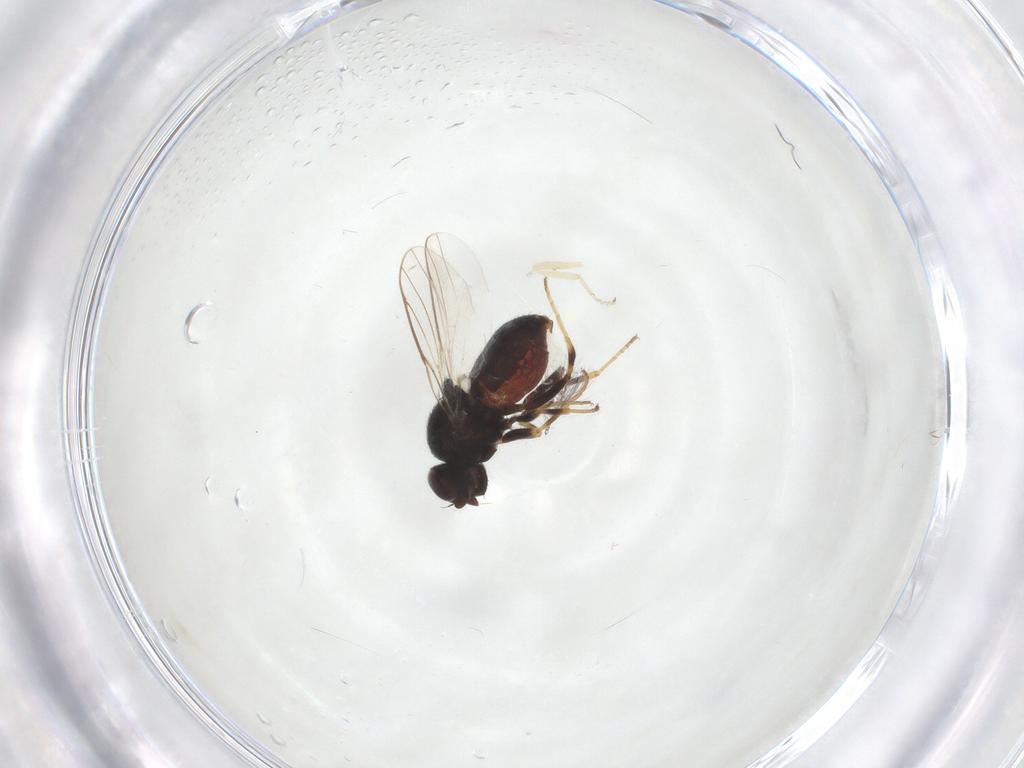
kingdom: Animalia
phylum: Arthropoda
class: Insecta
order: Diptera
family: Chloropidae
